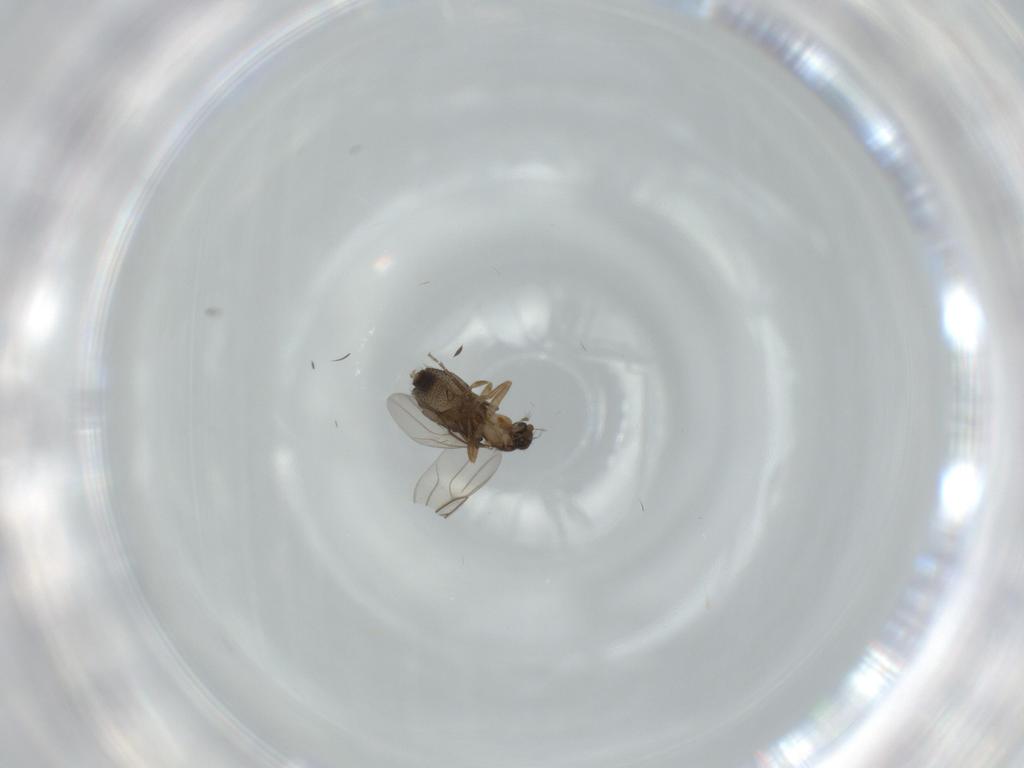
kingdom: Animalia
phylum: Arthropoda
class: Insecta
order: Diptera
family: Phoridae
